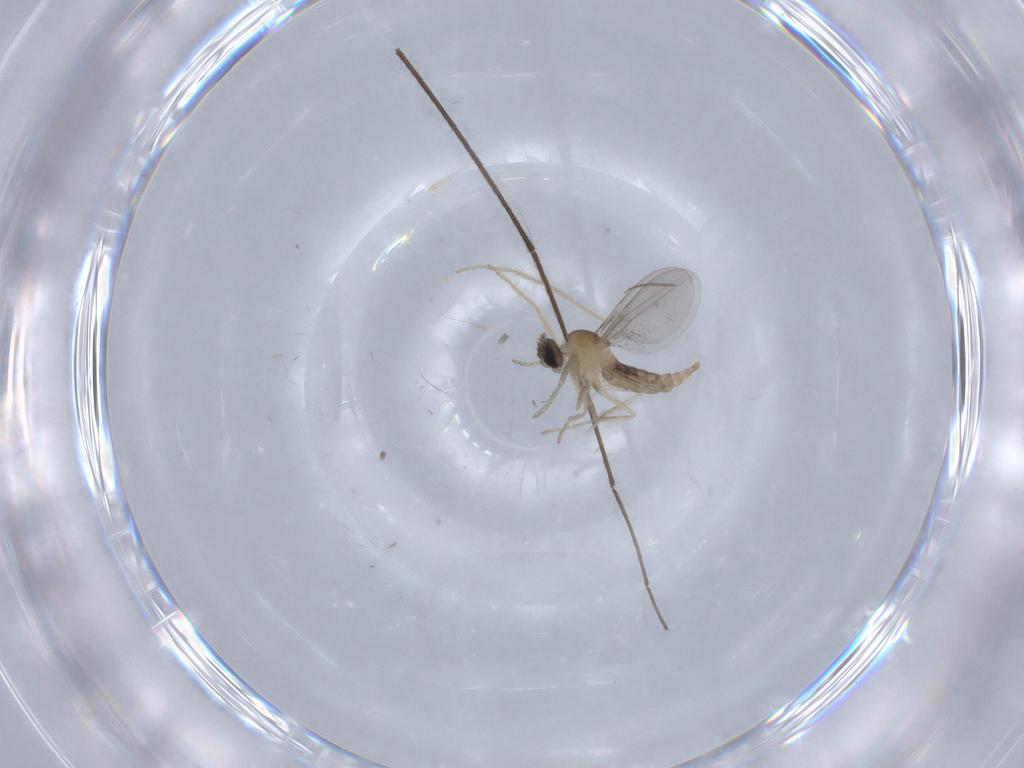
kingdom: Animalia
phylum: Arthropoda
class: Insecta
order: Diptera
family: Cecidomyiidae
